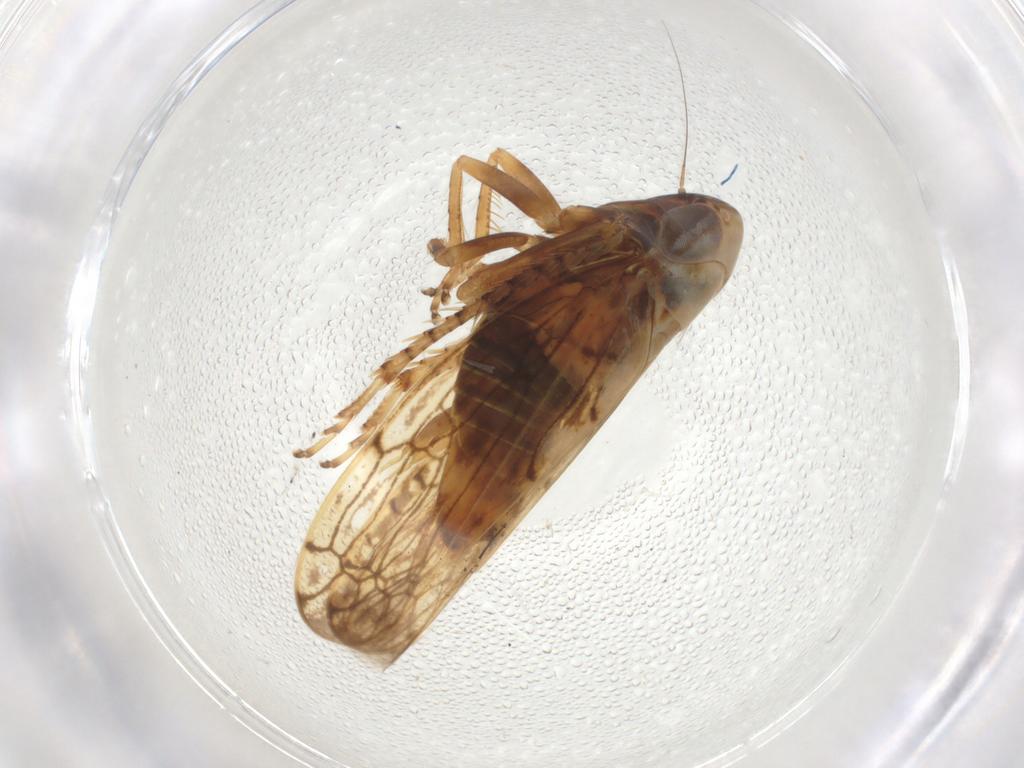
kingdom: Animalia
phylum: Arthropoda
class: Insecta
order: Hemiptera
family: Cicadellidae
